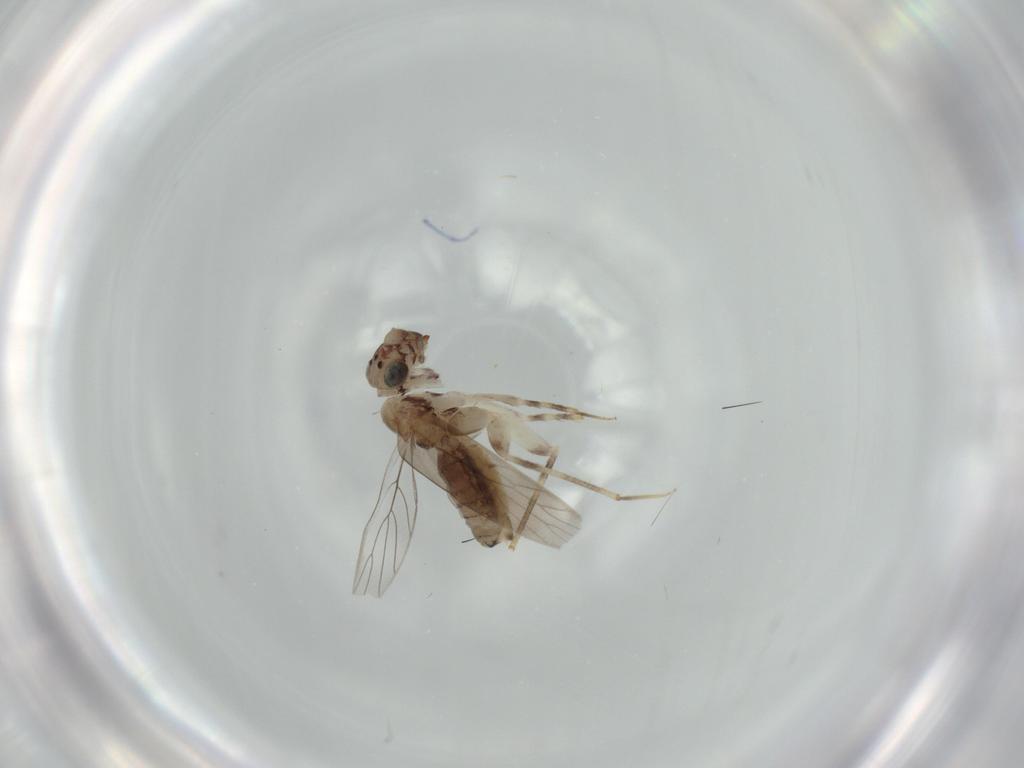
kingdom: Animalia
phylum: Arthropoda
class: Insecta
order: Psocodea
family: Lepidopsocidae
